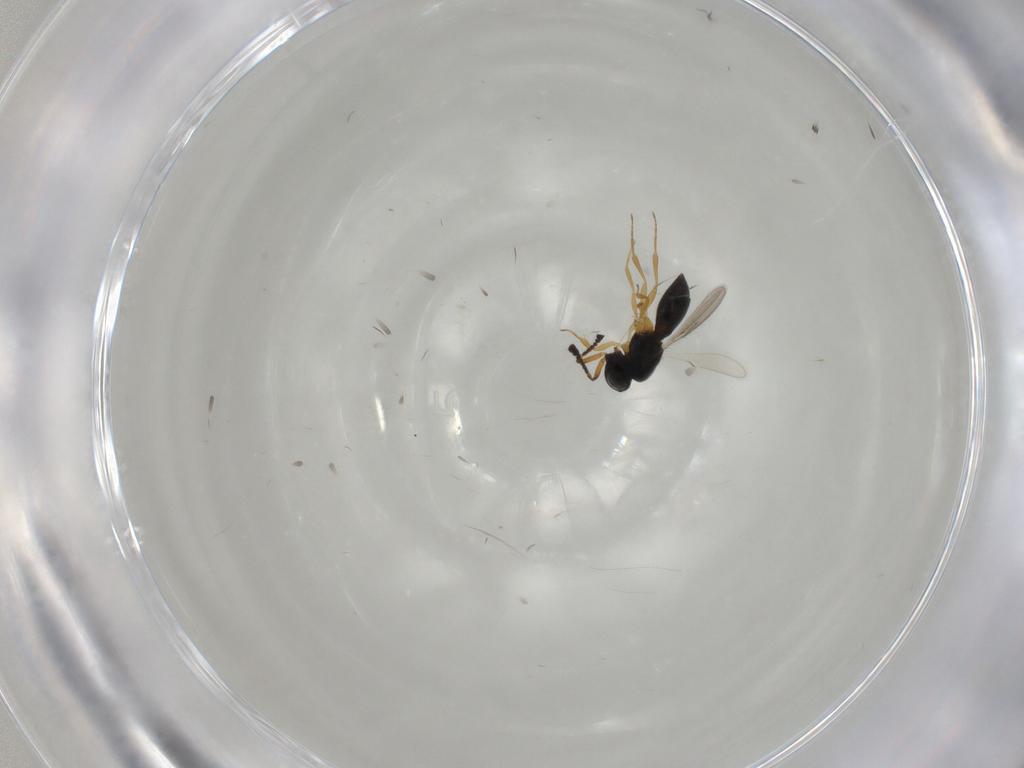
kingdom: Animalia
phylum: Arthropoda
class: Insecta
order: Hymenoptera
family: Scelionidae
